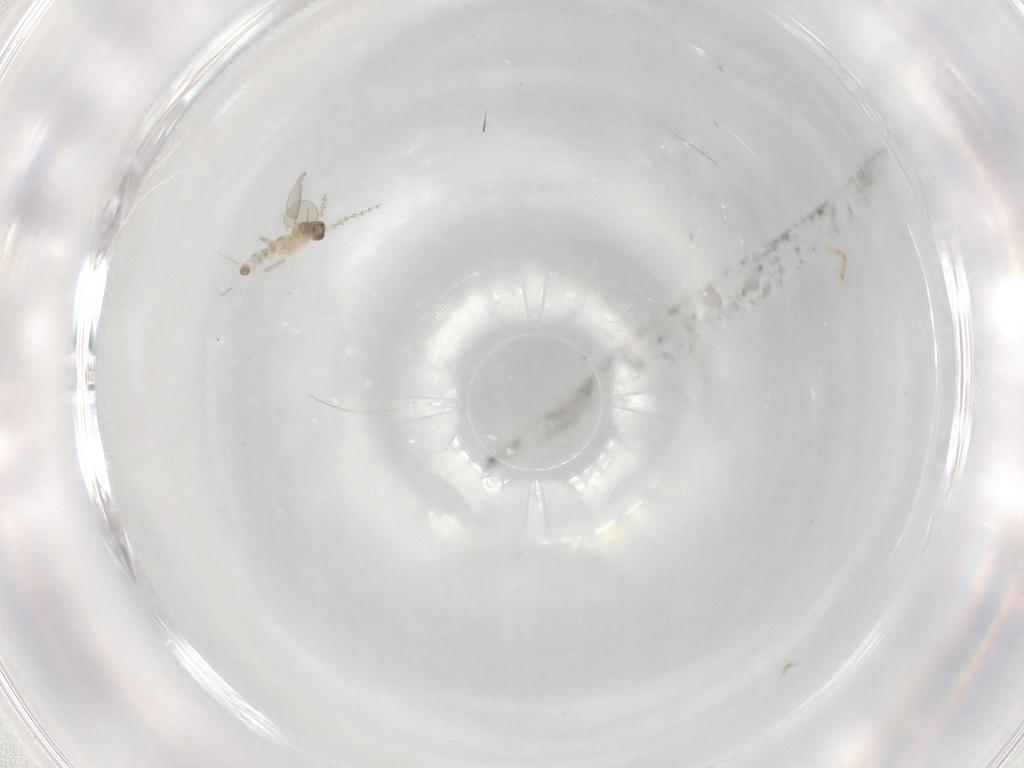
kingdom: Animalia
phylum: Arthropoda
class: Insecta
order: Diptera
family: Cecidomyiidae
